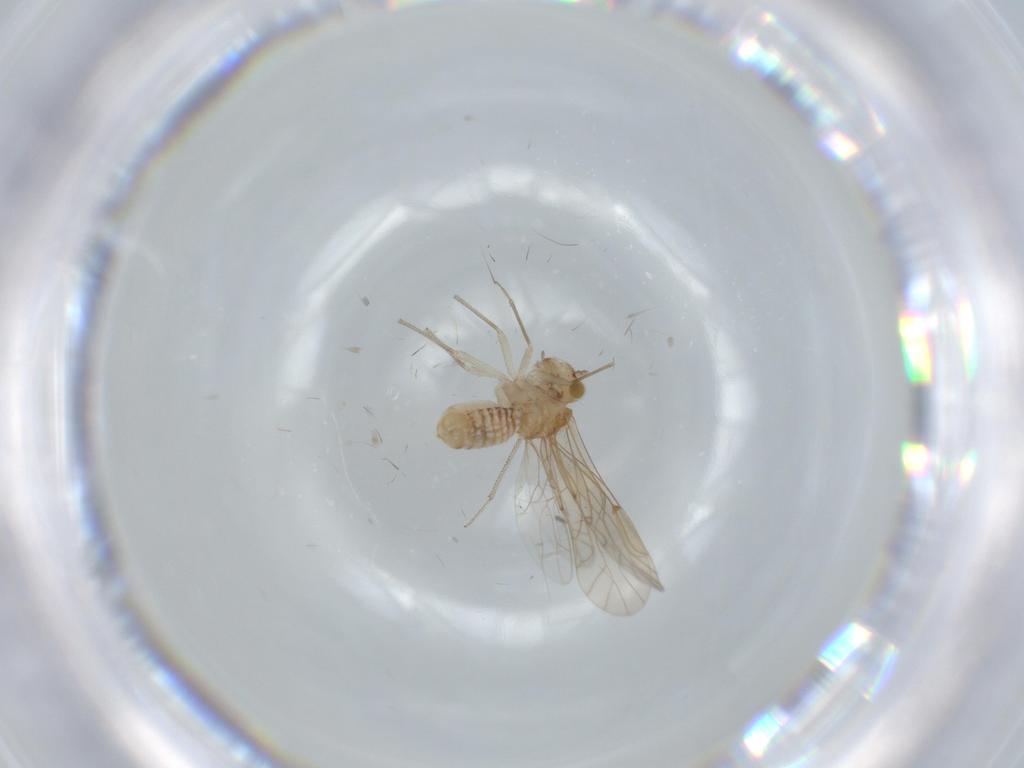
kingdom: Animalia
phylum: Arthropoda
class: Insecta
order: Psocodea
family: Lachesillidae
